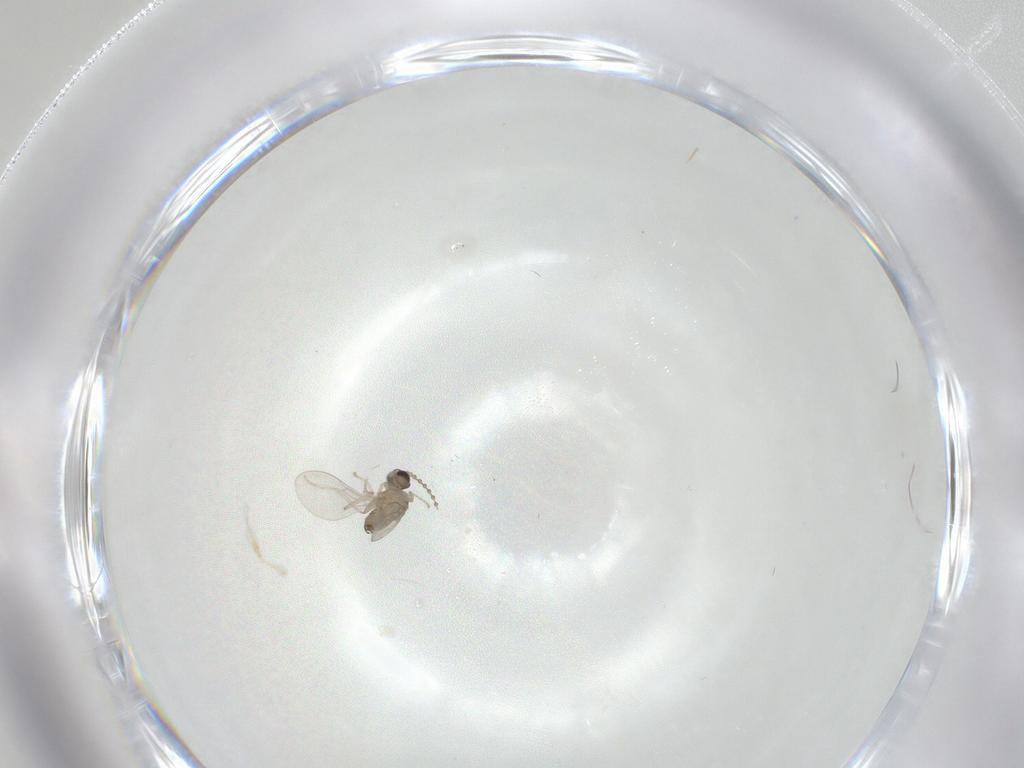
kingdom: Animalia
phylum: Arthropoda
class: Insecta
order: Diptera
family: Cecidomyiidae
